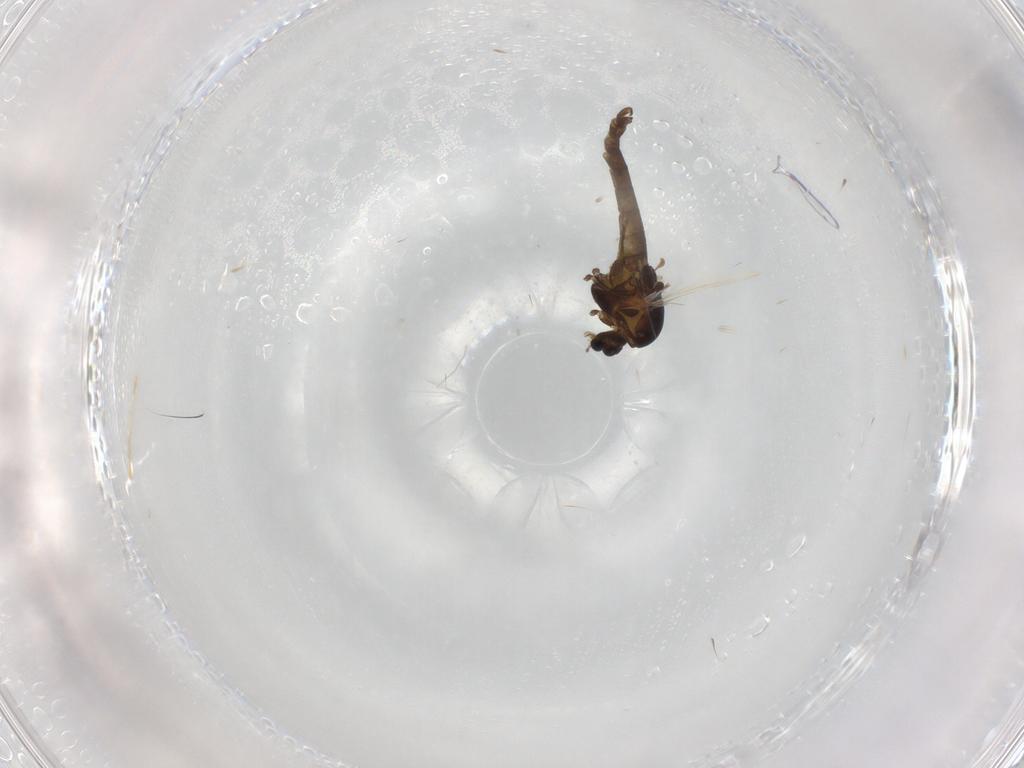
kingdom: Animalia
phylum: Arthropoda
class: Insecta
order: Diptera
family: Chironomidae
